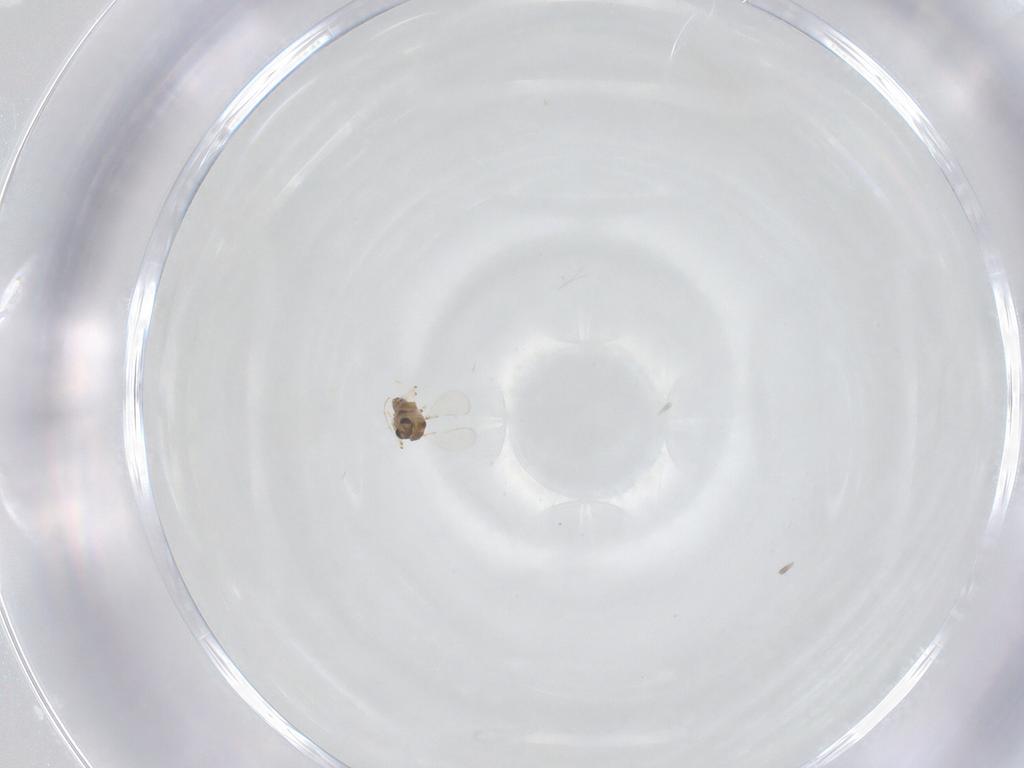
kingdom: Animalia
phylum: Arthropoda
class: Insecta
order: Diptera
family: Chironomidae
